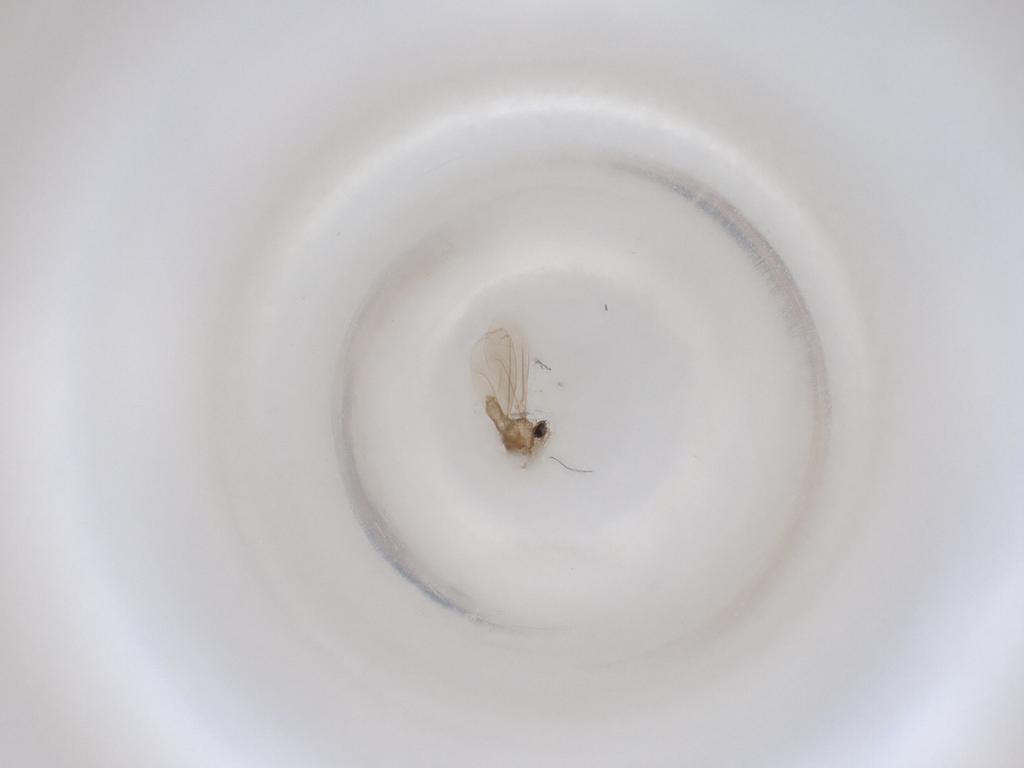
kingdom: Animalia
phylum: Arthropoda
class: Insecta
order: Diptera
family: Cecidomyiidae
